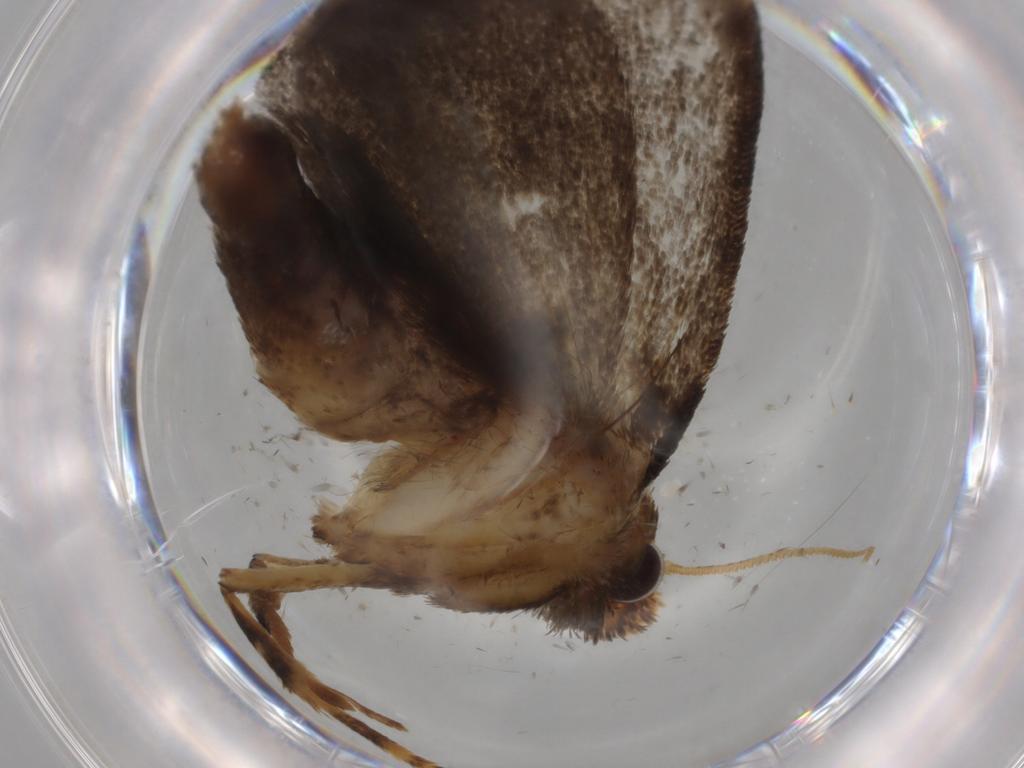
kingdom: Animalia
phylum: Arthropoda
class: Insecta
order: Lepidoptera
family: Tineidae
